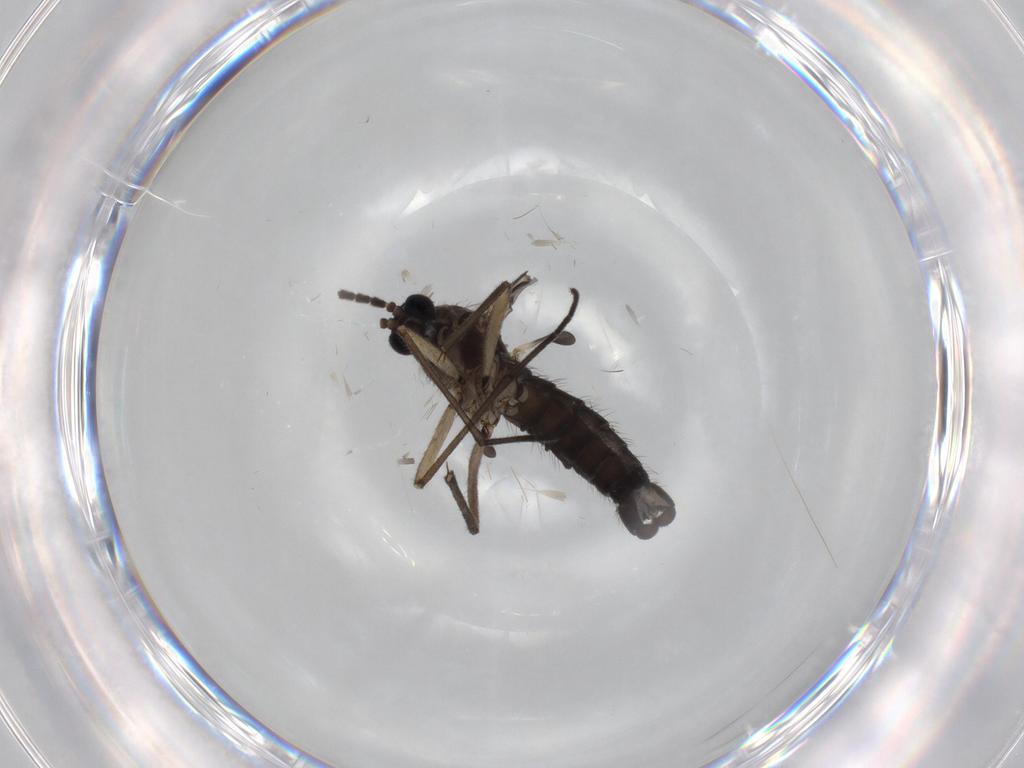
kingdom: Animalia
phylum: Arthropoda
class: Insecta
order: Diptera
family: Sciaridae
